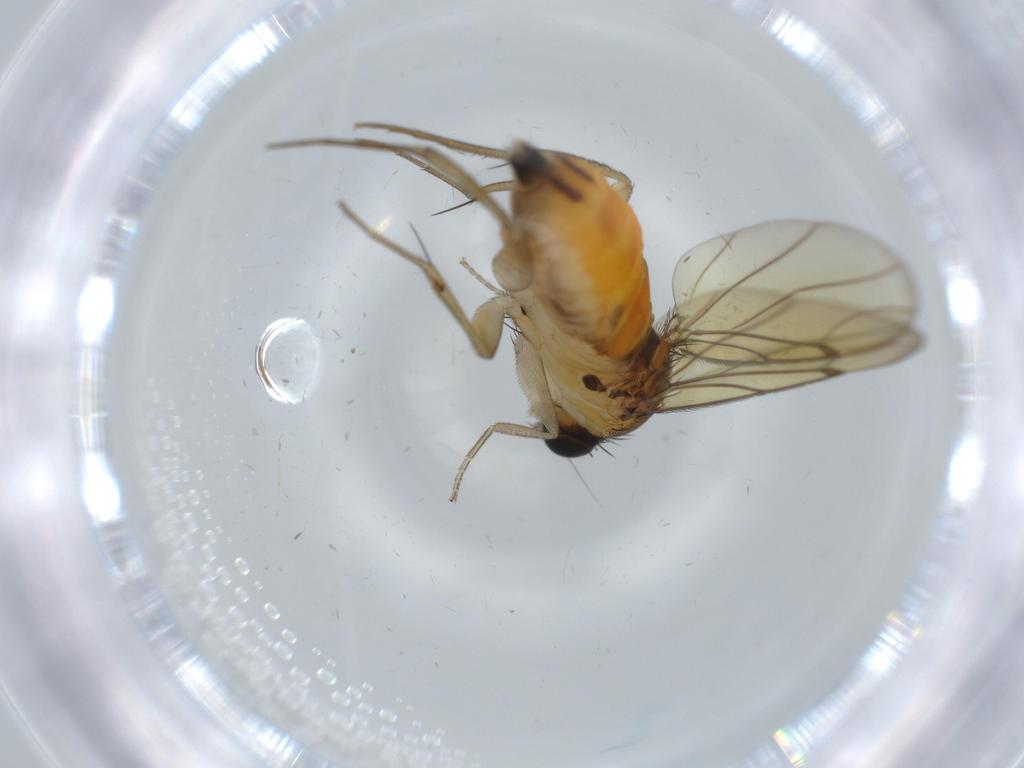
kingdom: Animalia
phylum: Arthropoda
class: Insecta
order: Diptera
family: Phoridae
